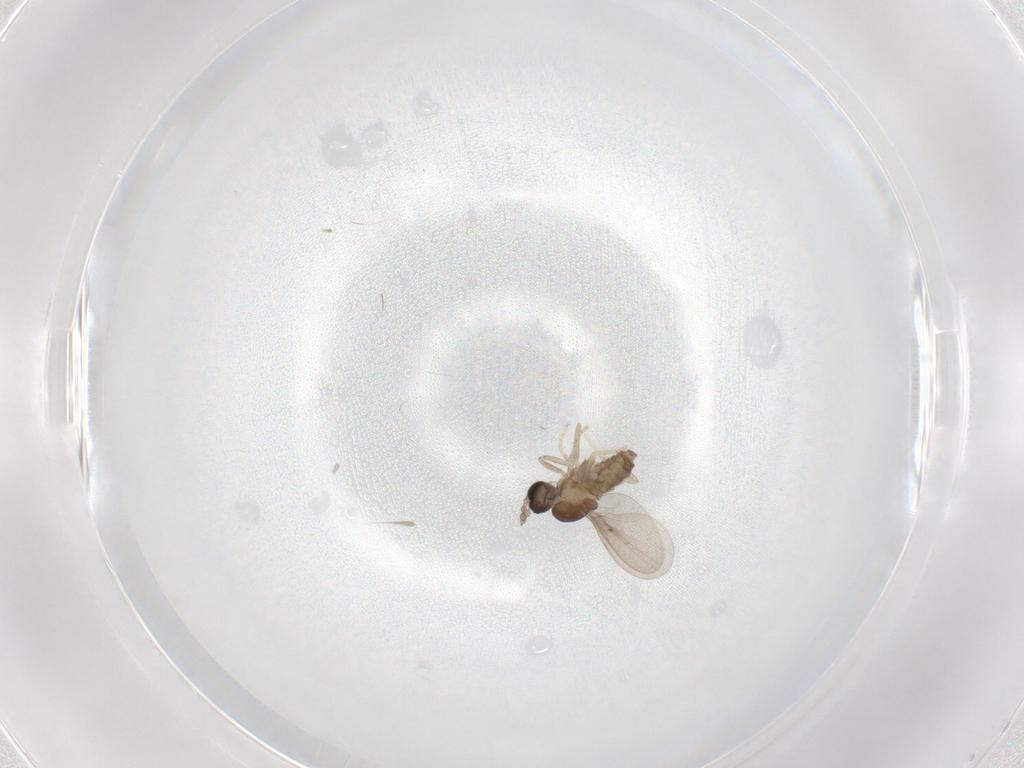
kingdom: Animalia
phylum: Arthropoda
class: Insecta
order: Diptera
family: Cecidomyiidae
